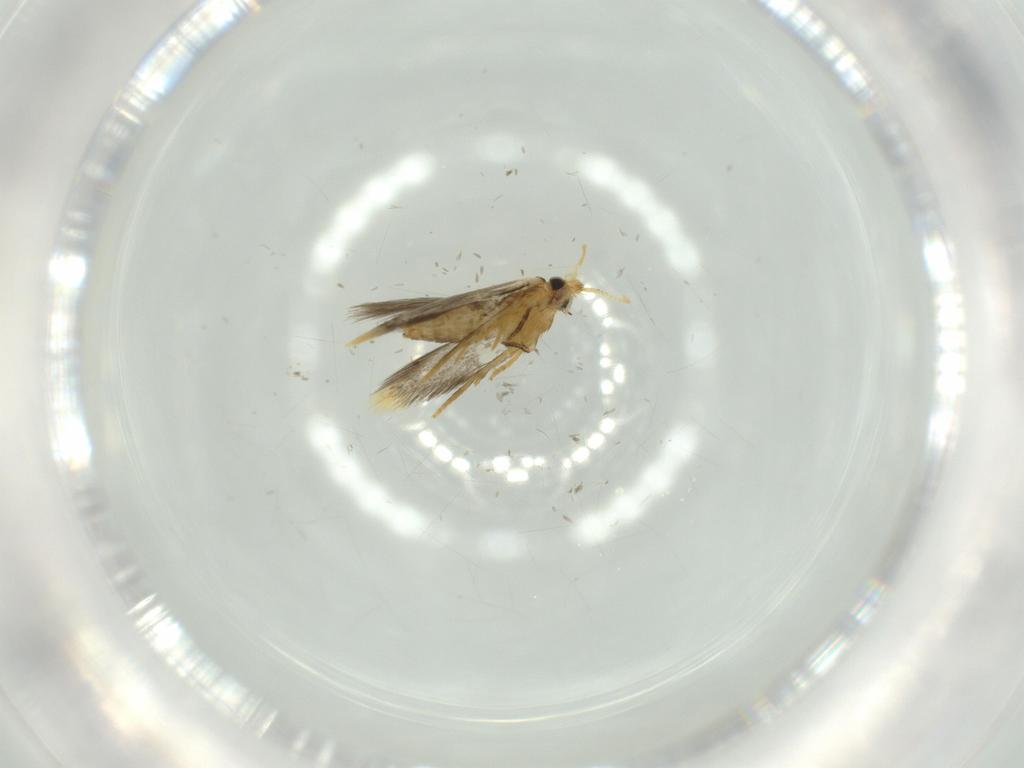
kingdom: Animalia
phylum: Arthropoda
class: Insecta
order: Lepidoptera
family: Copromorphidae
